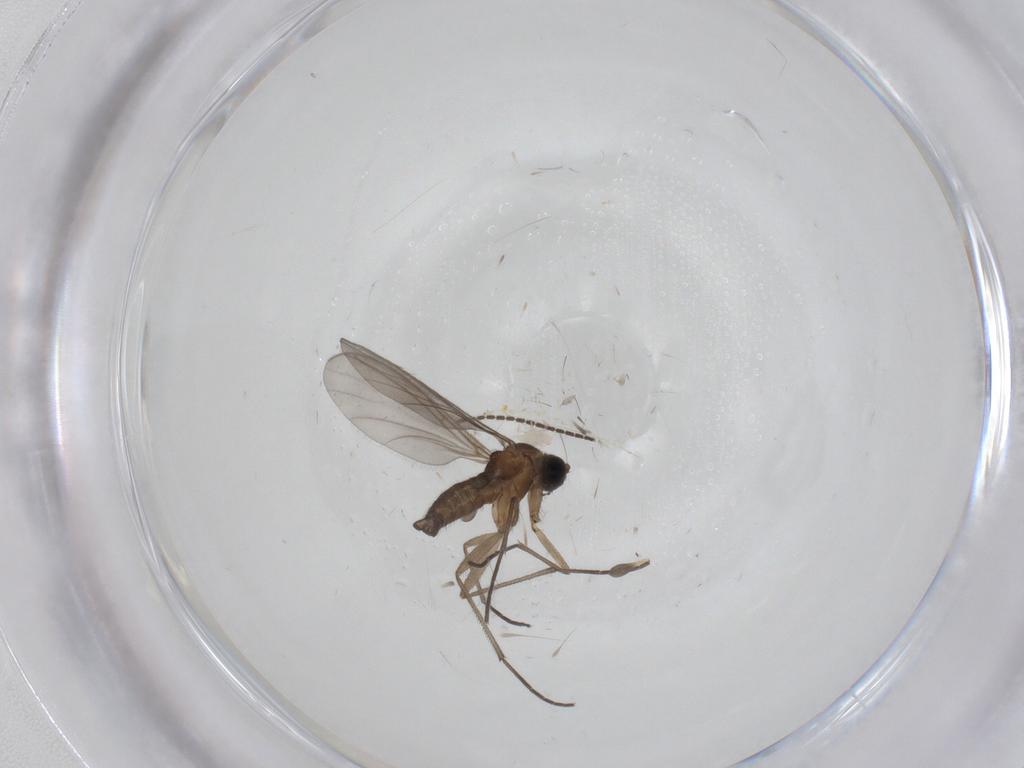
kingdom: Animalia
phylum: Arthropoda
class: Insecta
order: Diptera
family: Sciaridae
